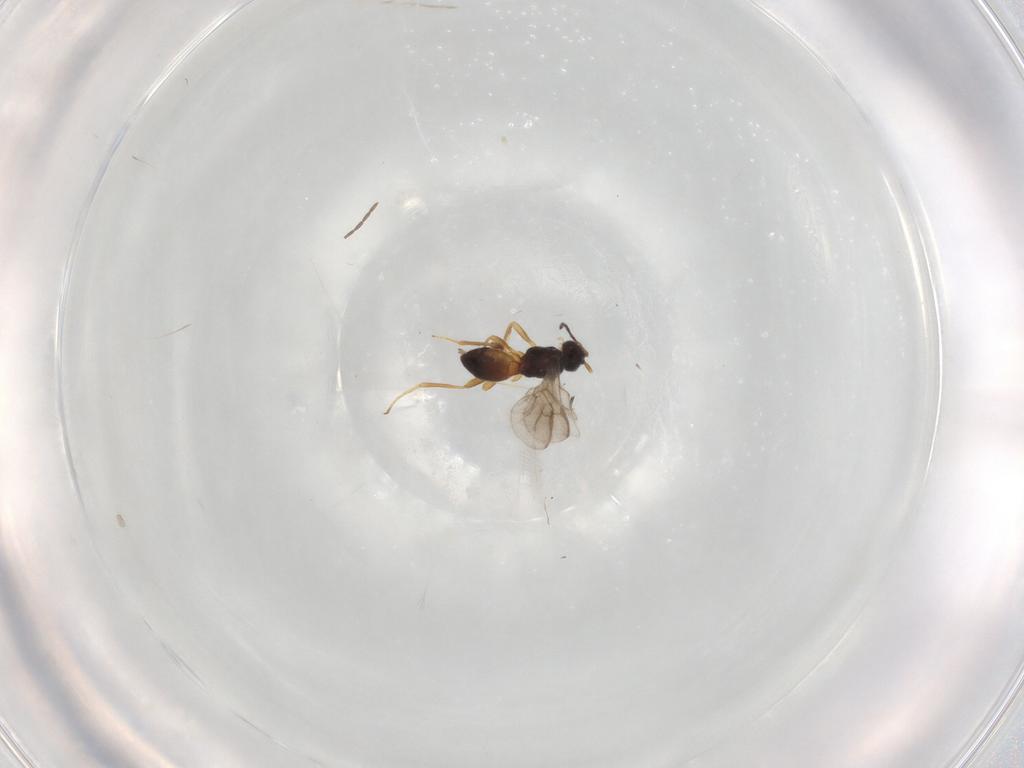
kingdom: Animalia
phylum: Arthropoda
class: Insecta
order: Hymenoptera
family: Braconidae
